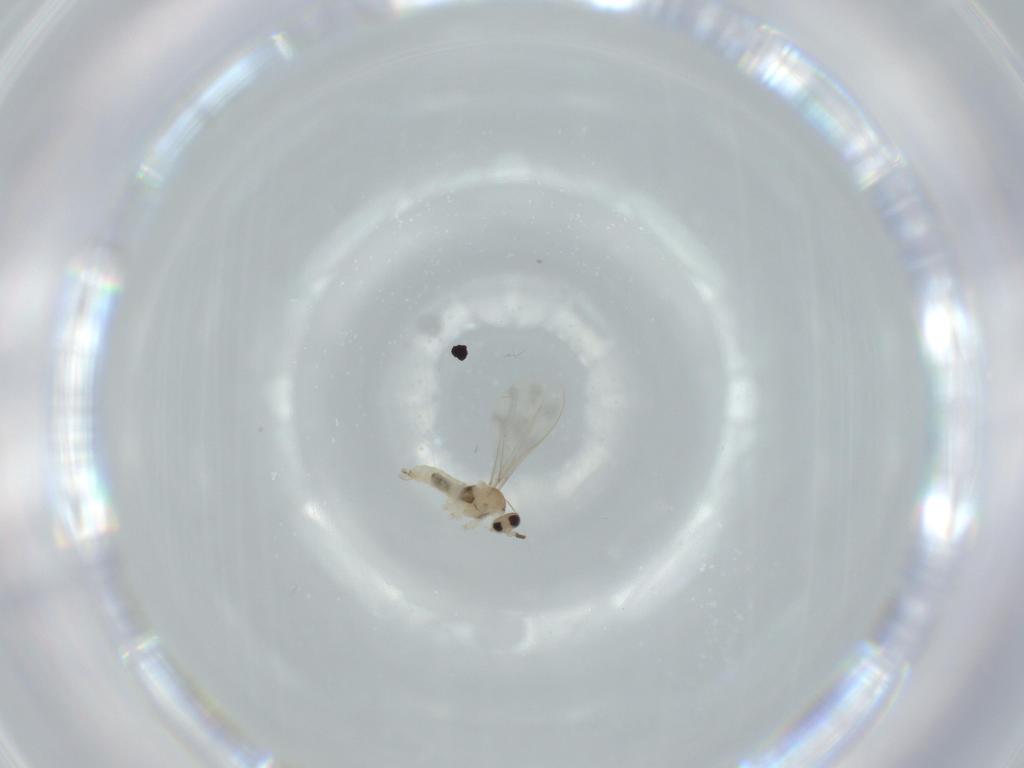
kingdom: Animalia
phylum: Arthropoda
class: Insecta
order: Diptera
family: Cecidomyiidae
